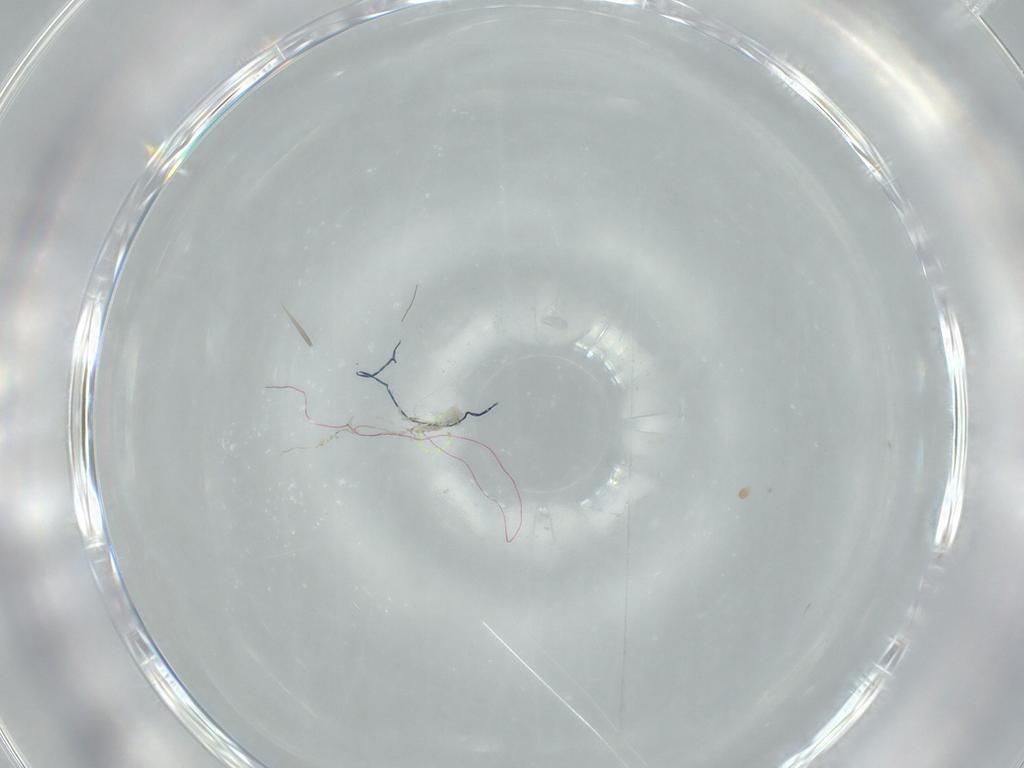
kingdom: Animalia
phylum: Arthropoda
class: Insecta
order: Diptera
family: Cecidomyiidae
